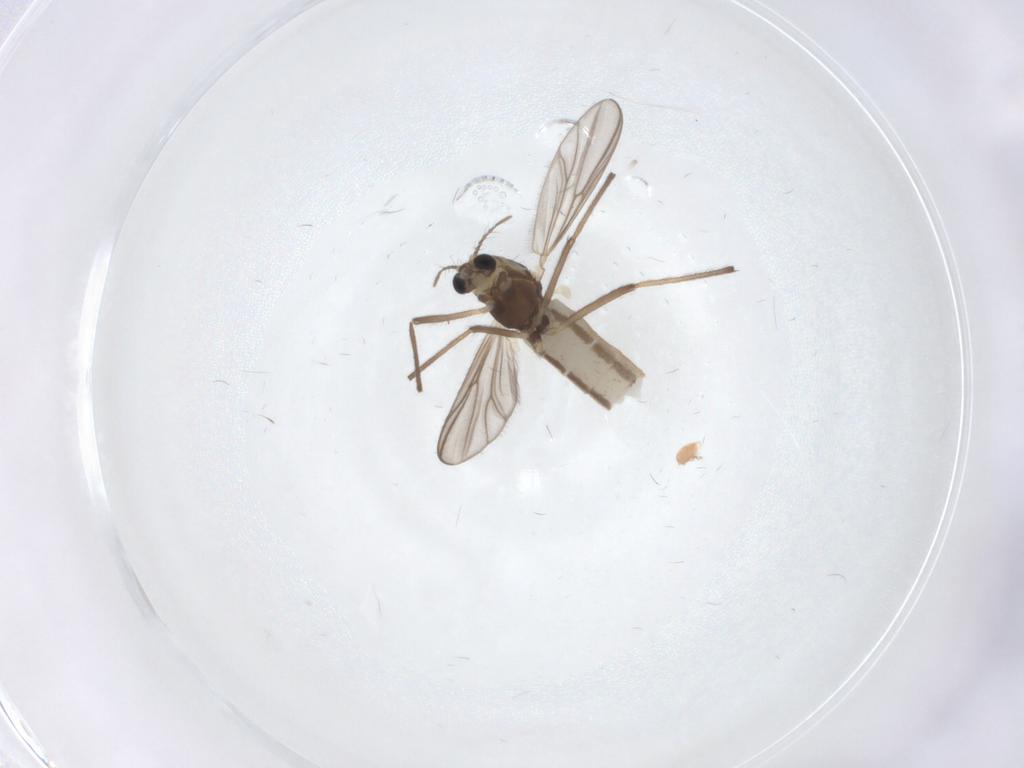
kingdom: Animalia
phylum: Arthropoda
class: Insecta
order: Diptera
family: Chironomidae
